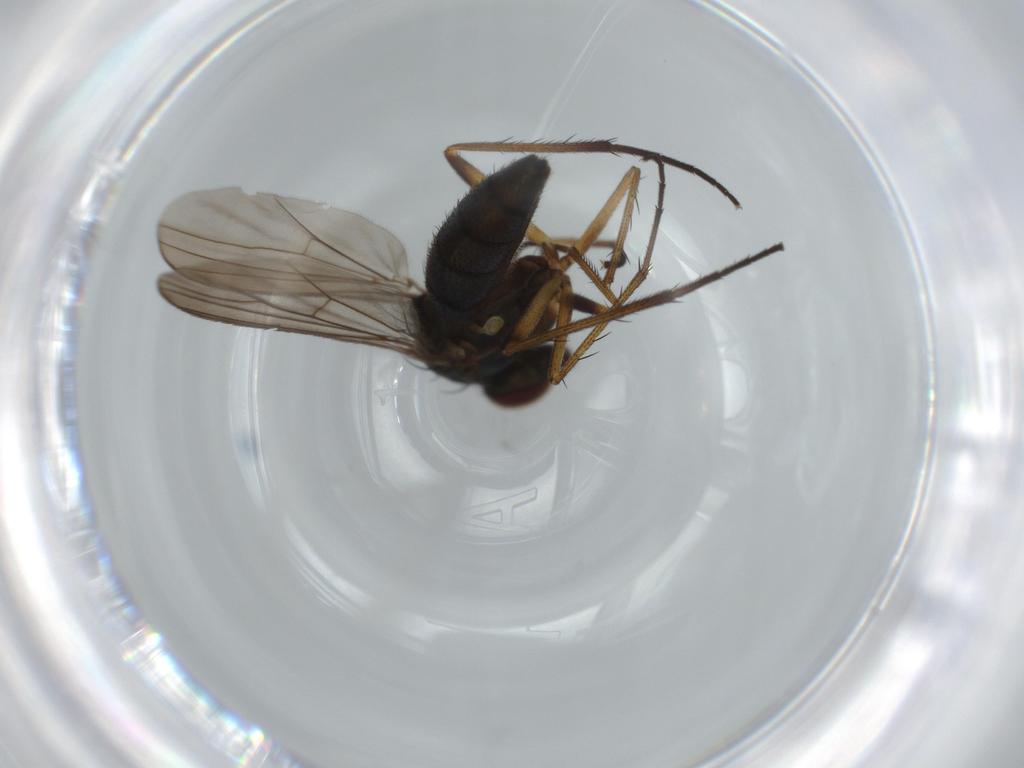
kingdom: Animalia
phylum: Arthropoda
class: Insecta
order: Diptera
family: Dolichopodidae
